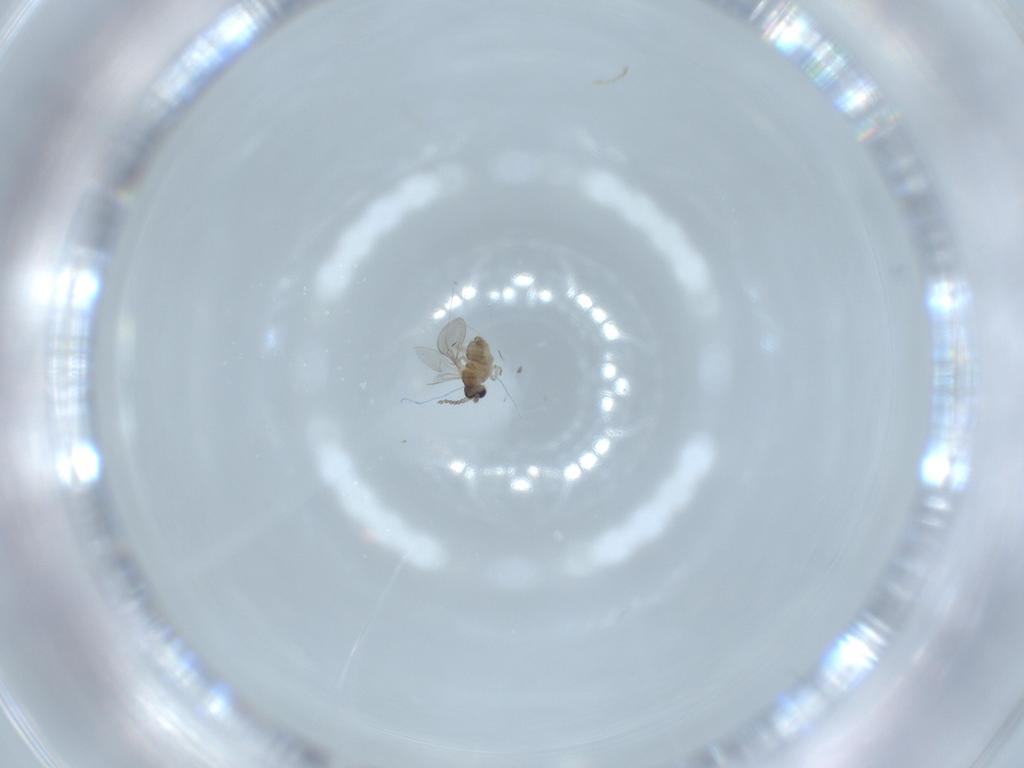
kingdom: Animalia
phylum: Arthropoda
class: Insecta
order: Diptera
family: Cecidomyiidae
